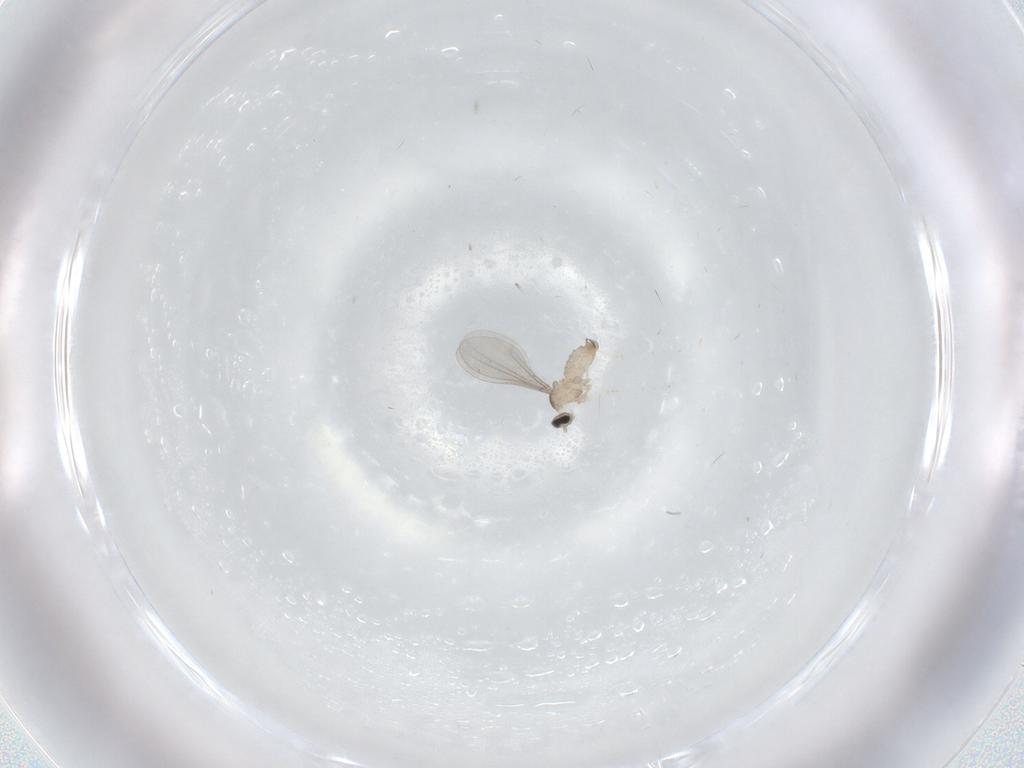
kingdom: Animalia
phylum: Arthropoda
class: Insecta
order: Diptera
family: Cecidomyiidae
